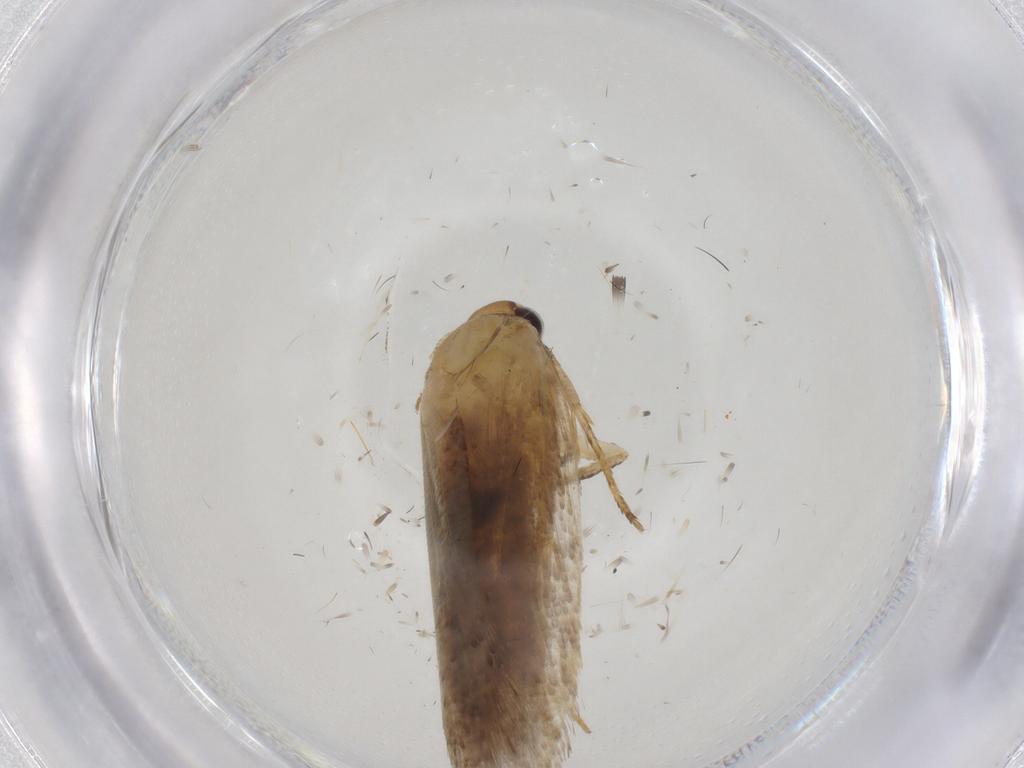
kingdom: Animalia
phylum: Arthropoda
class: Insecta
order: Lepidoptera
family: Gelechiidae
